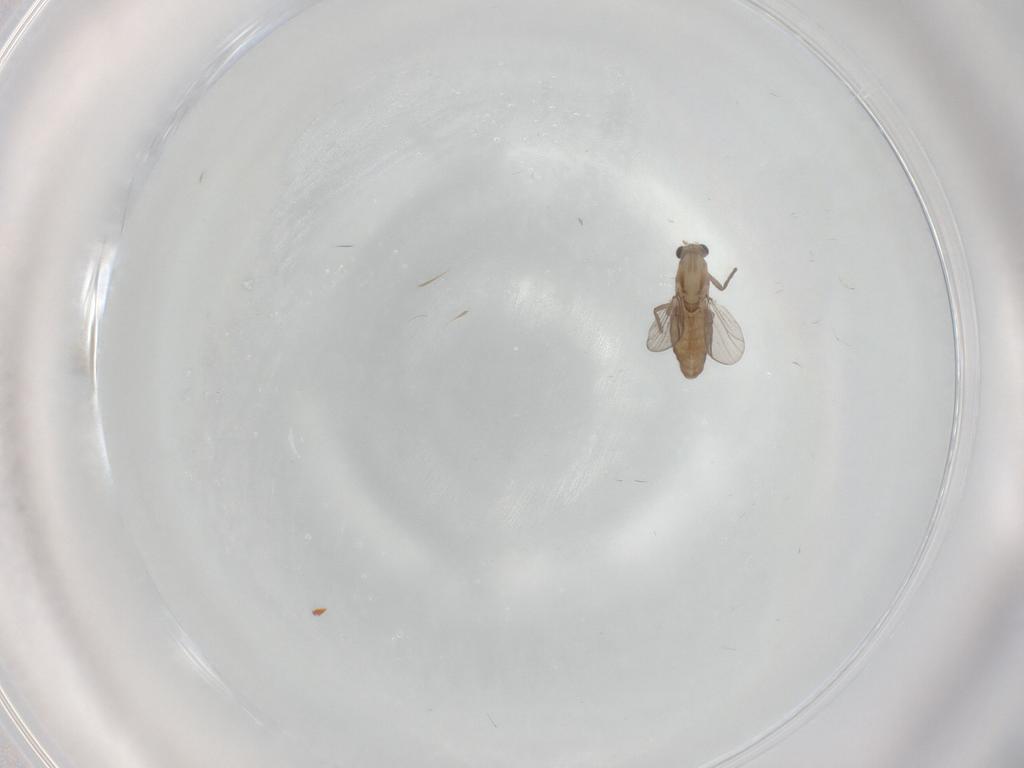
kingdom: Animalia
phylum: Arthropoda
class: Insecta
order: Diptera
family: Chironomidae
